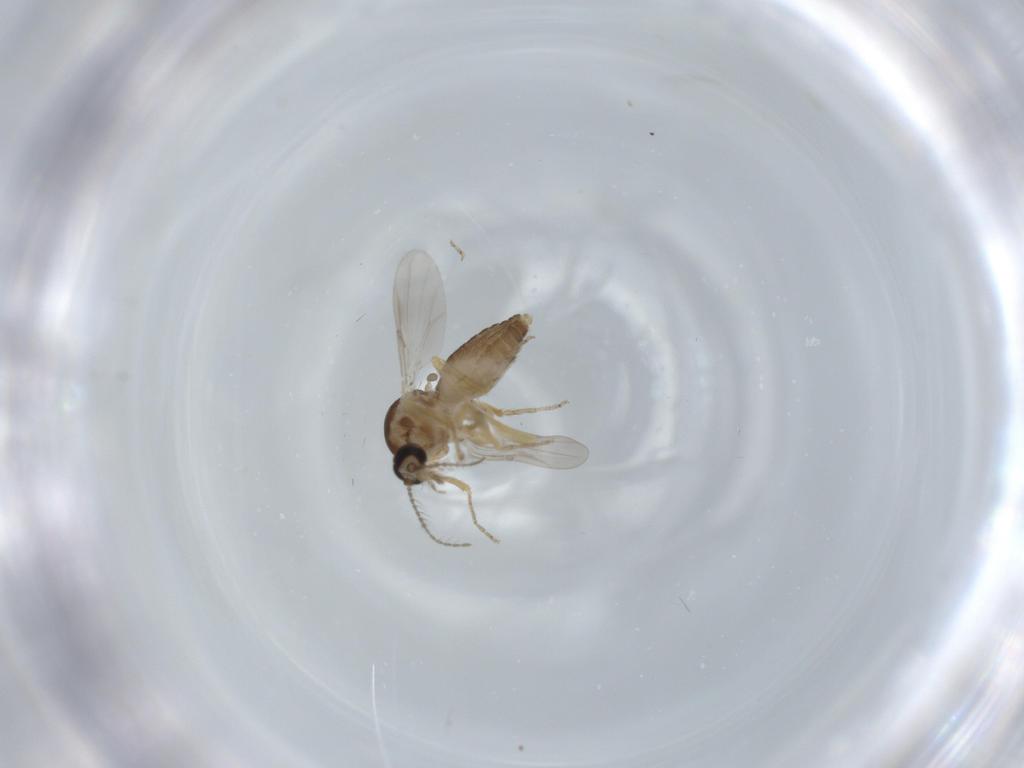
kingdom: Animalia
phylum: Arthropoda
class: Insecta
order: Diptera
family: Ceratopogonidae
